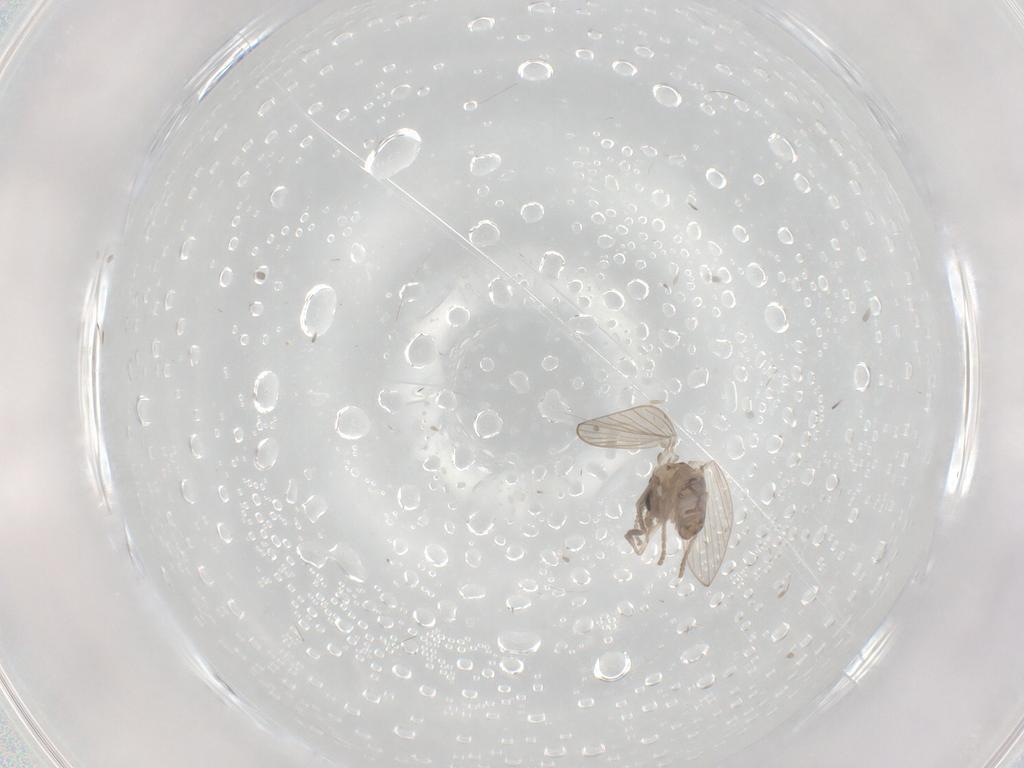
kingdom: Animalia
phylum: Arthropoda
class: Insecta
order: Diptera
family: Psychodidae
